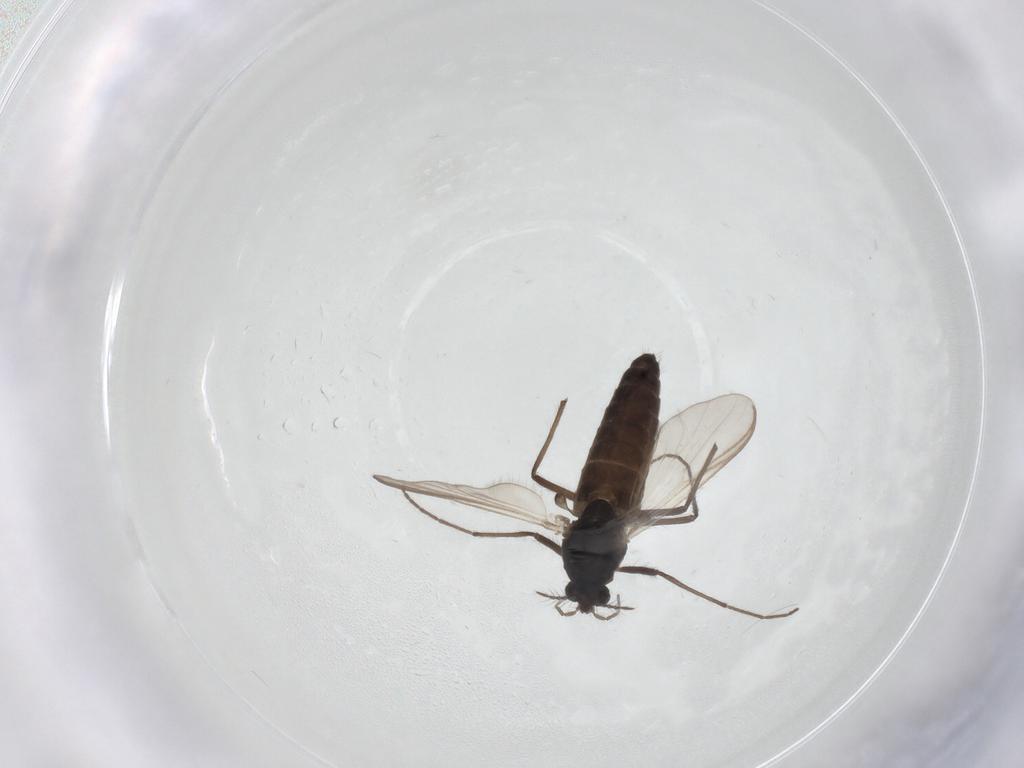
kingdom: Animalia
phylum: Arthropoda
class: Insecta
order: Diptera
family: Chironomidae
